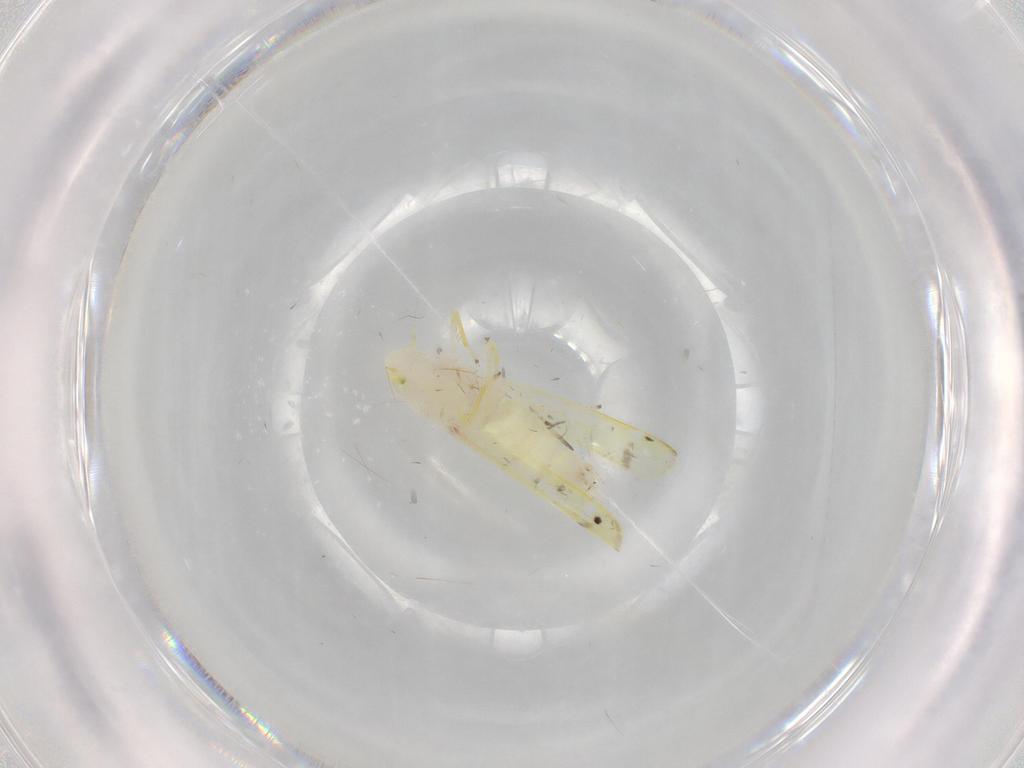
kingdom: Animalia
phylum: Arthropoda
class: Insecta
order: Hemiptera
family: Cicadellidae
